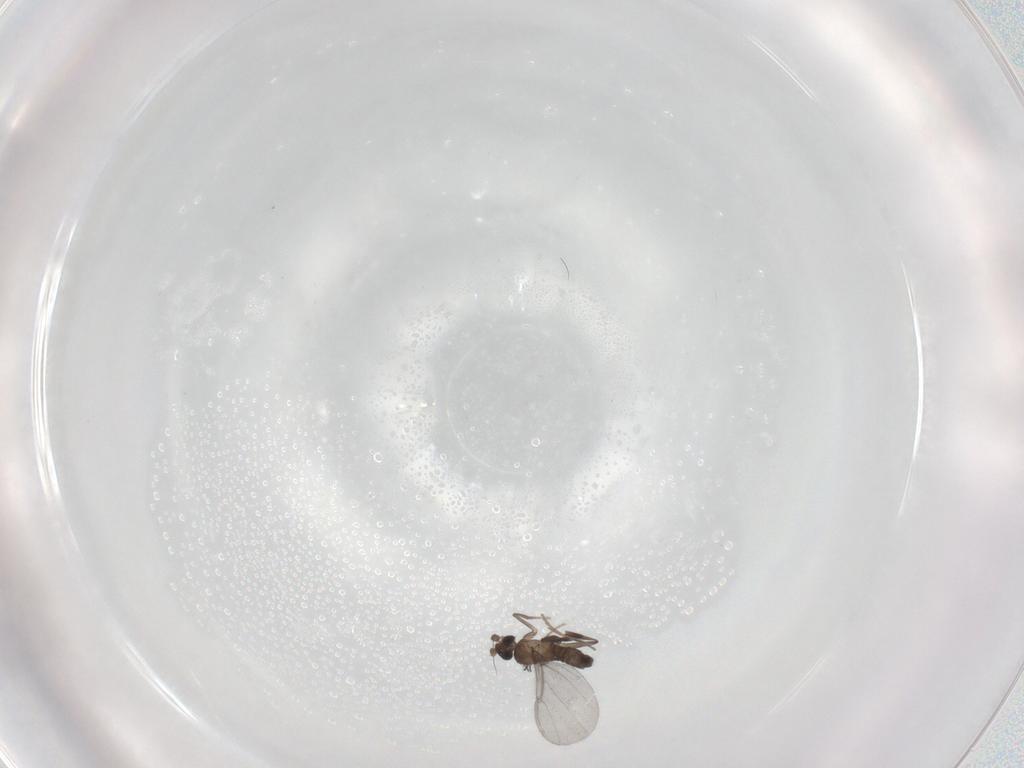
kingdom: Animalia
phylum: Arthropoda
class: Insecta
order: Diptera
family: Phoridae
